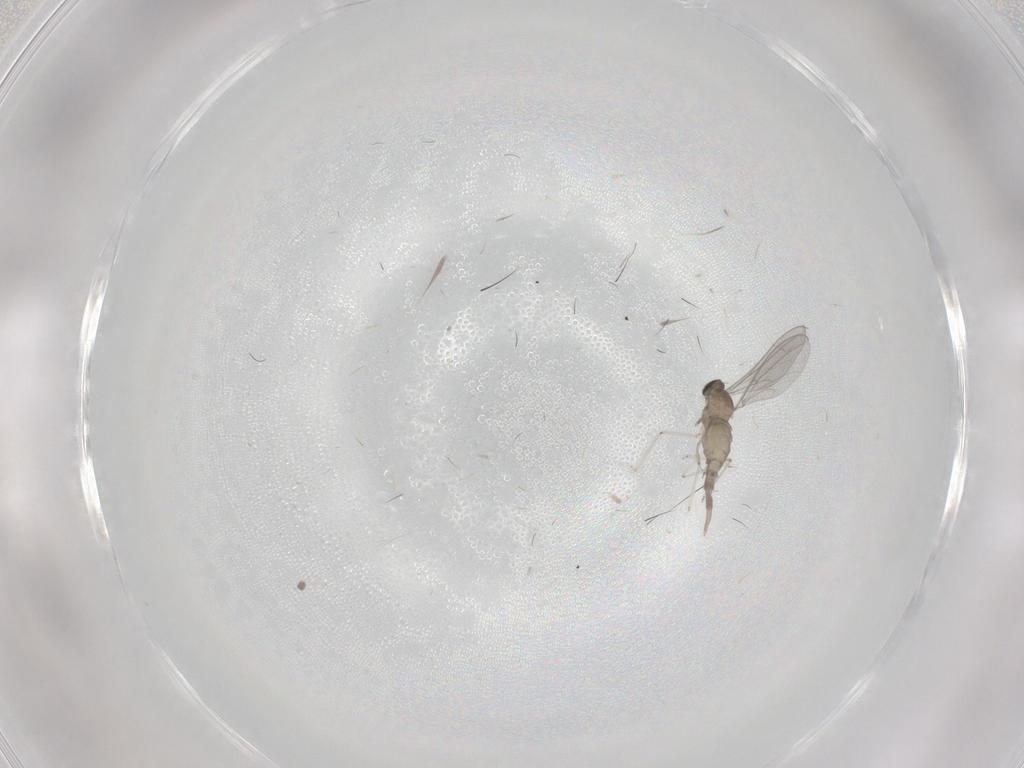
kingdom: Animalia
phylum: Arthropoda
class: Insecta
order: Diptera
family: Cecidomyiidae
